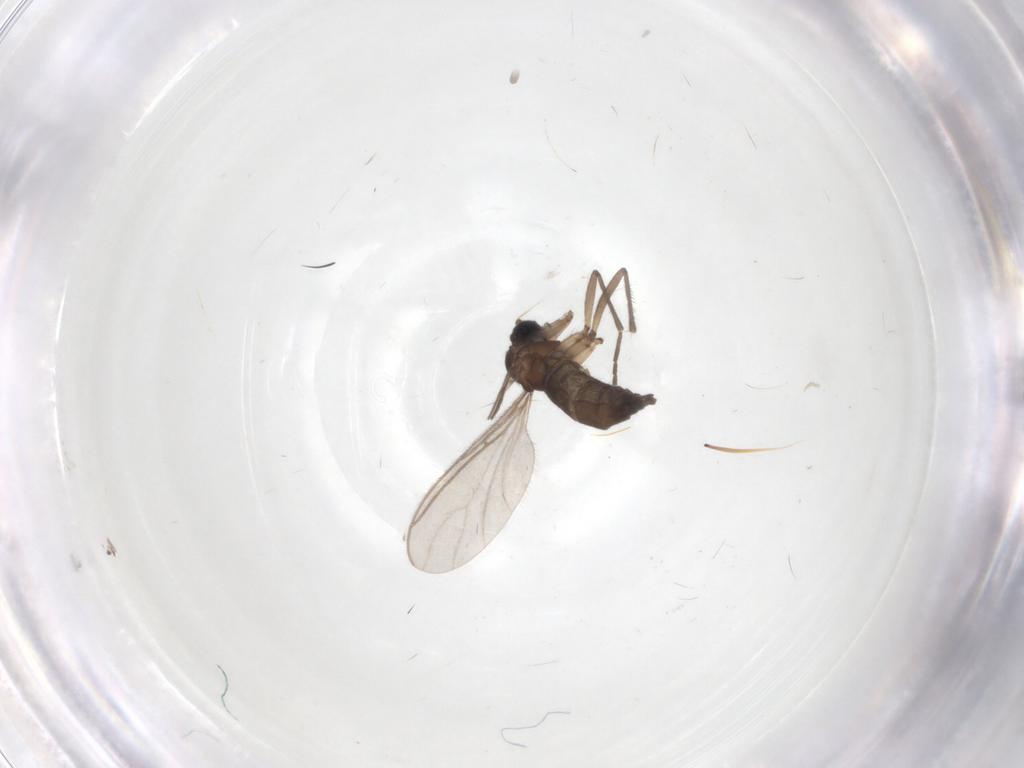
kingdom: Animalia
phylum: Arthropoda
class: Insecta
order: Diptera
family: Sciaridae
